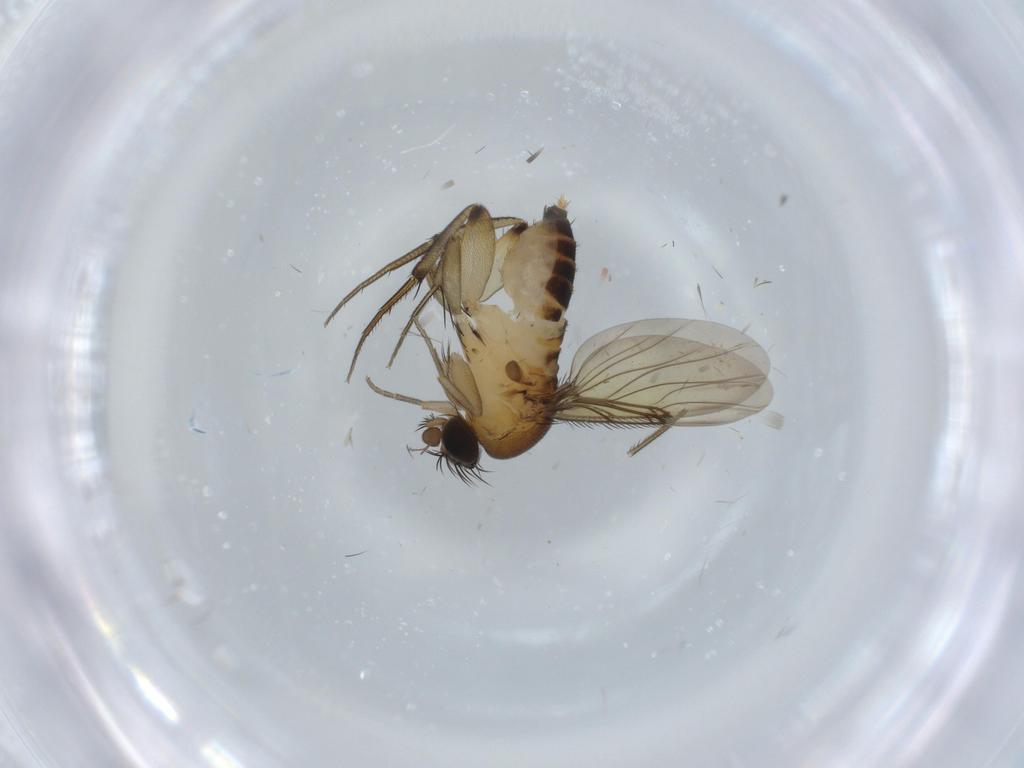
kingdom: Animalia
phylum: Arthropoda
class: Insecta
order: Diptera
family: Phoridae
